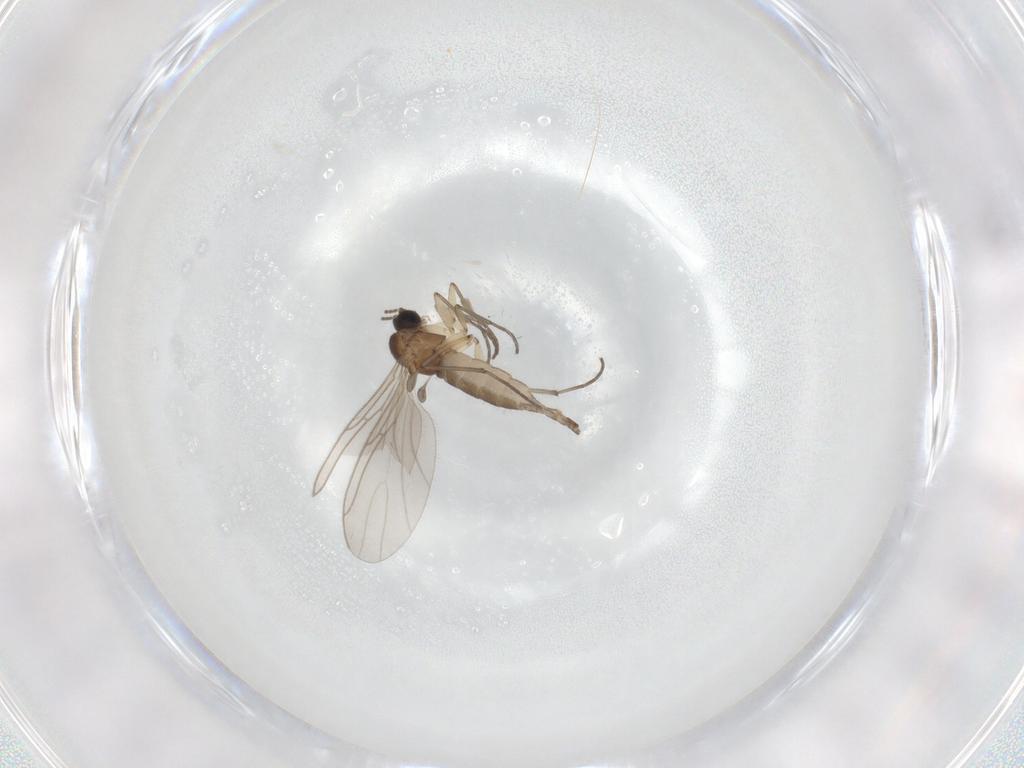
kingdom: Animalia
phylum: Arthropoda
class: Insecta
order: Diptera
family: Sciaridae
